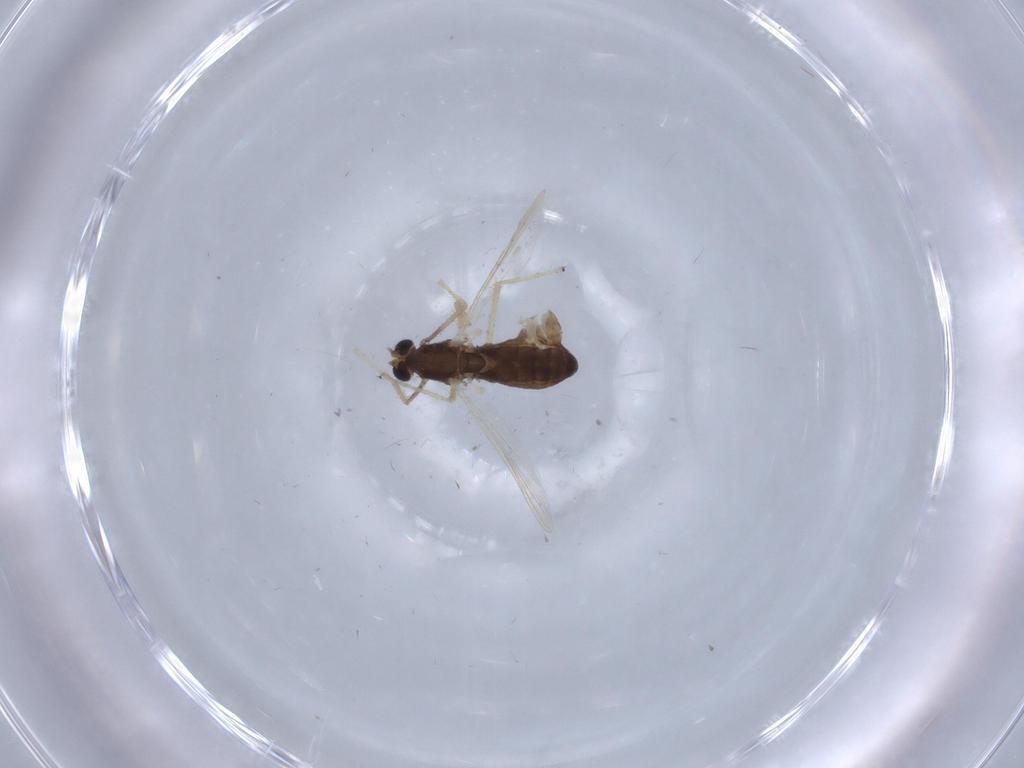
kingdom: Animalia
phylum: Arthropoda
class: Insecta
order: Diptera
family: Chironomidae
